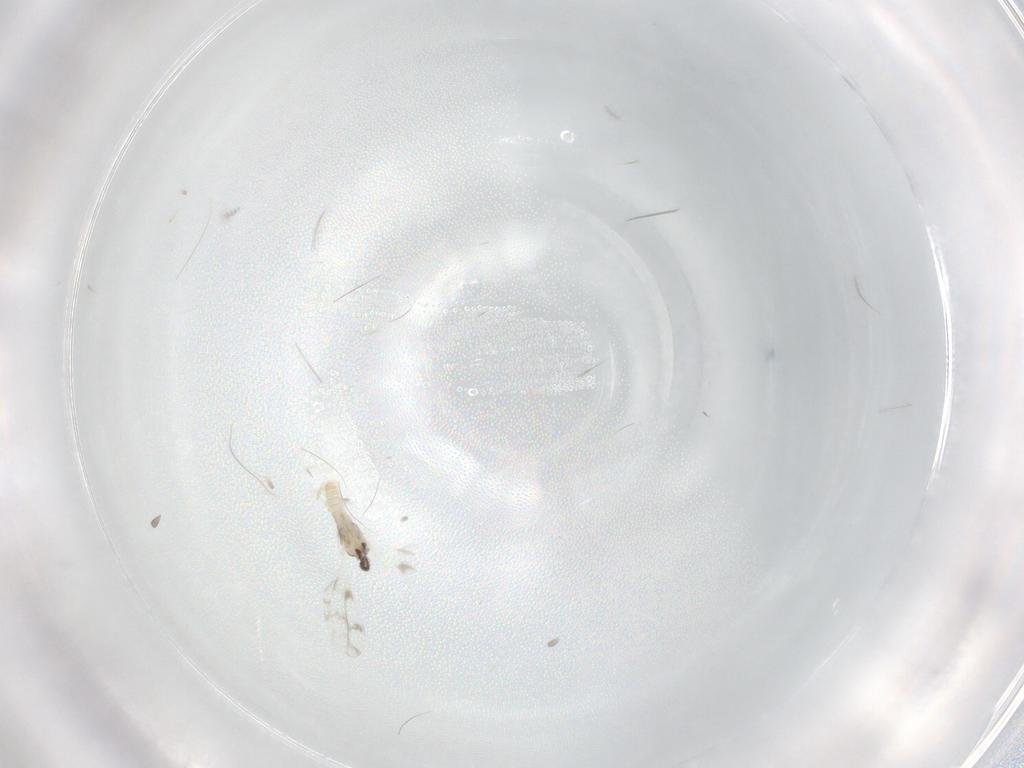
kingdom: Animalia
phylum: Arthropoda
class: Insecta
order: Diptera
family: Cecidomyiidae
